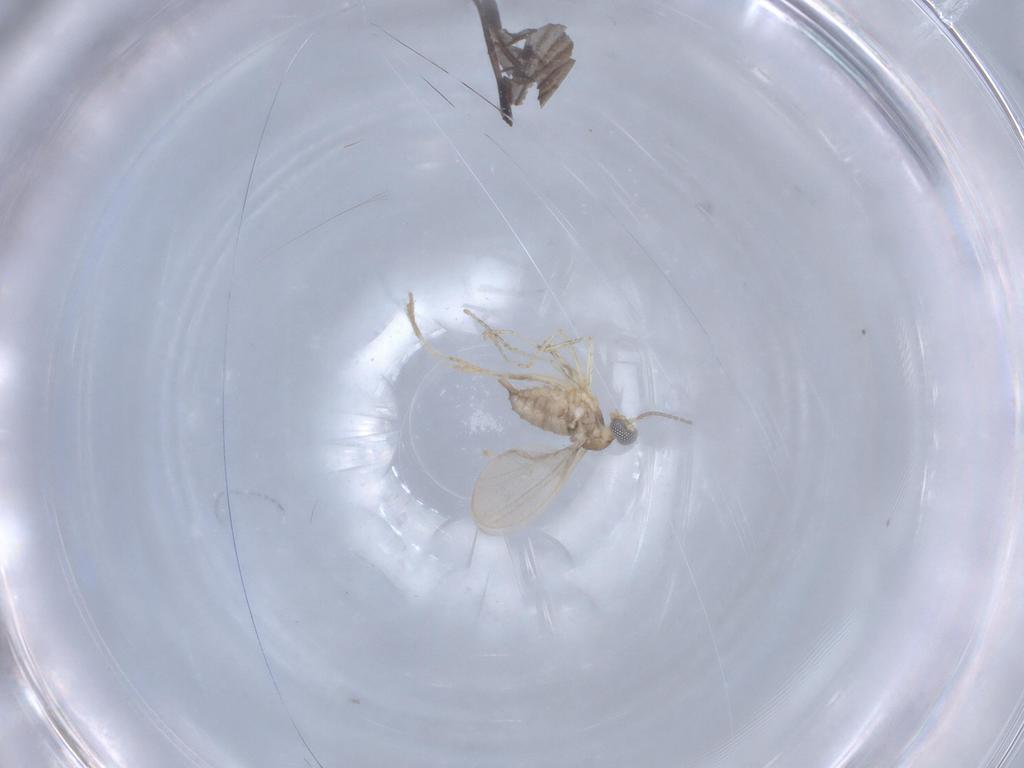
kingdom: Animalia
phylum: Arthropoda
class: Insecta
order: Diptera
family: Cecidomyiidae
